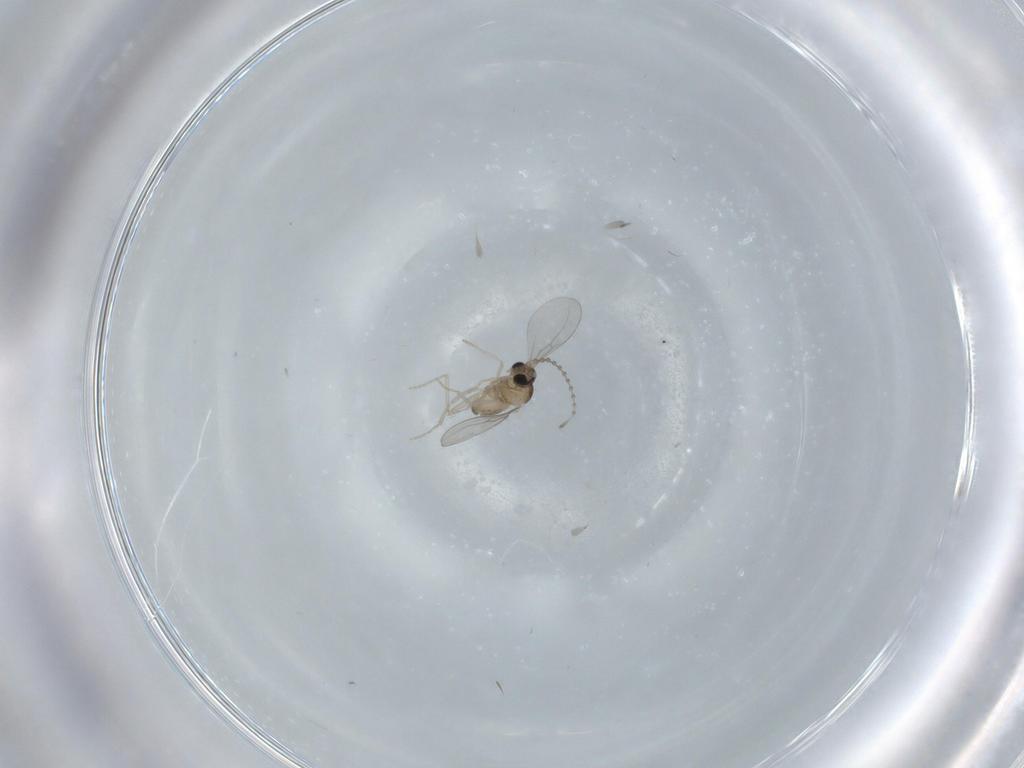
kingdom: Animalia
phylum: Arthropoda
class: Insecta
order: Diptera
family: Cecidomyiidae
